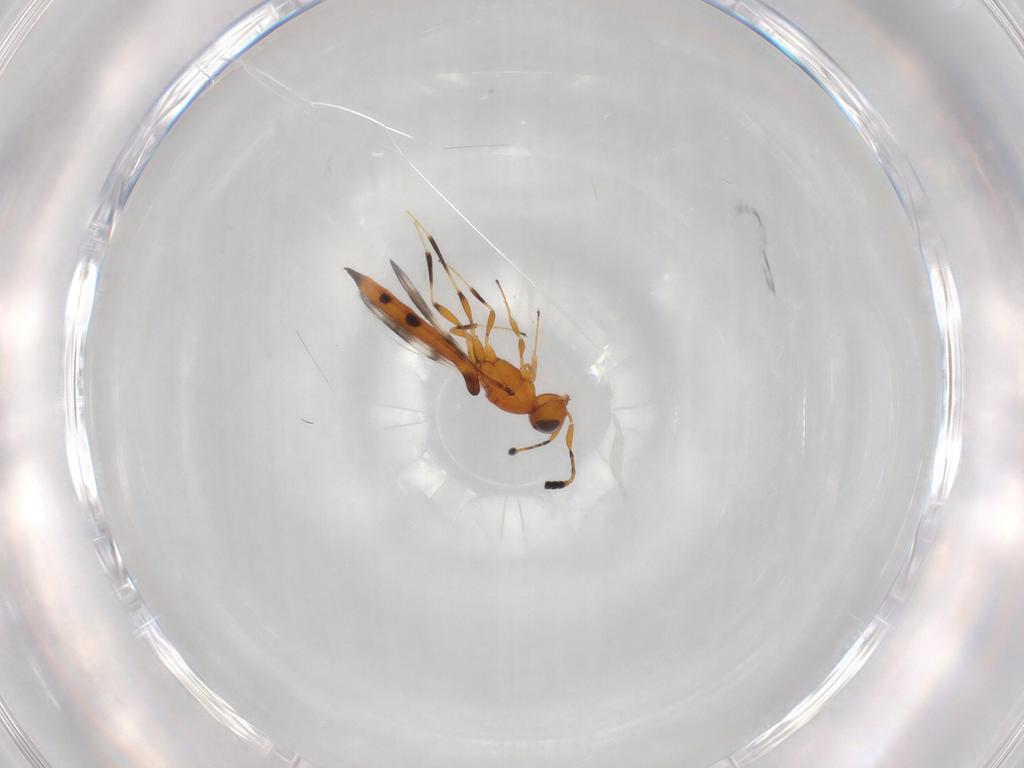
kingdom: Animalia
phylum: Arthropoda
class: Insecta
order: Hymenoptera
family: Scelionidae
